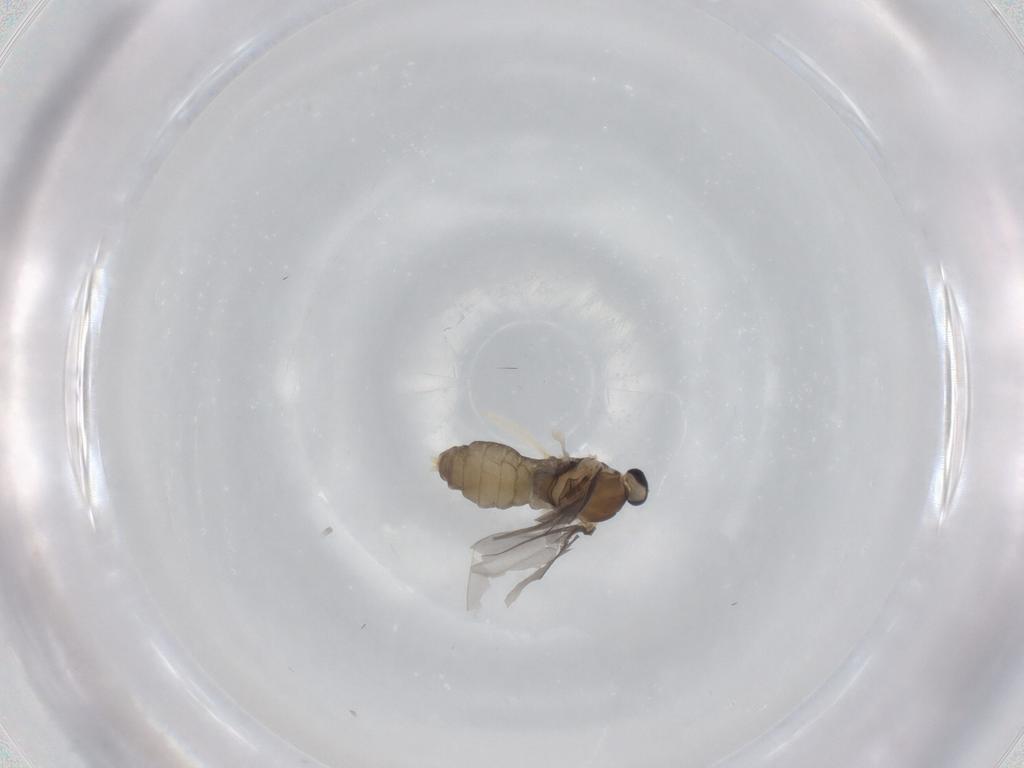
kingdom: Animalia
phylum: Arthropoda
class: Insecta
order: Diptera
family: Cecidomyiidae
